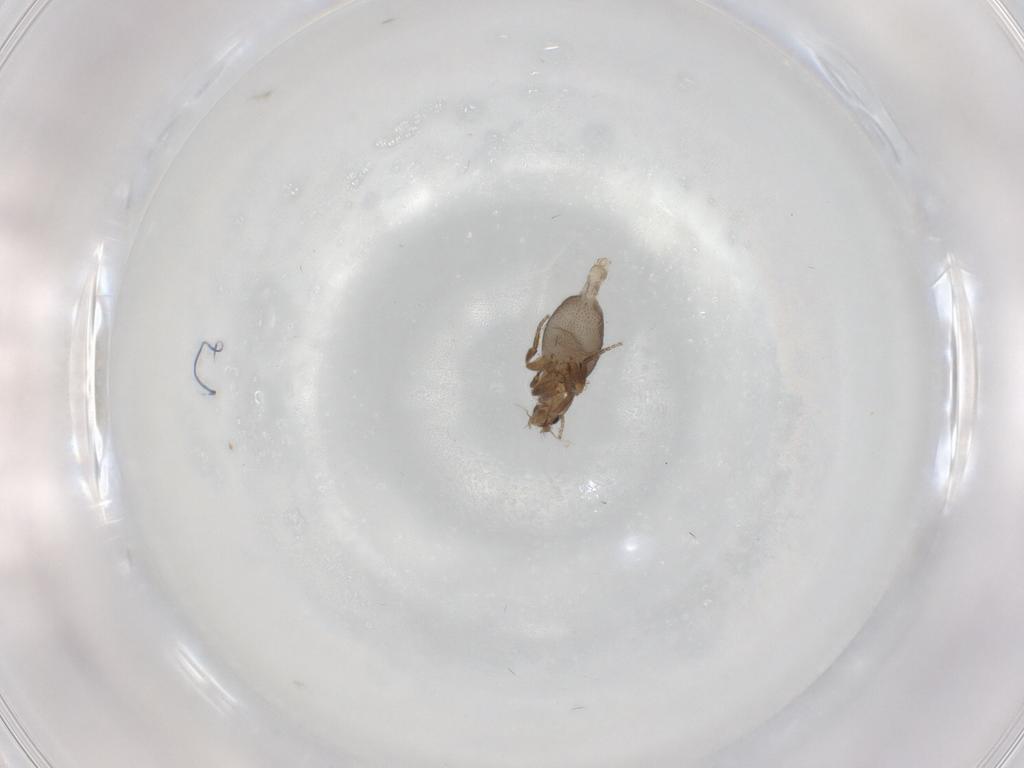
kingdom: Animalia
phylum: Arthropoda
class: Insecta
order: Diptera
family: Phoridae
